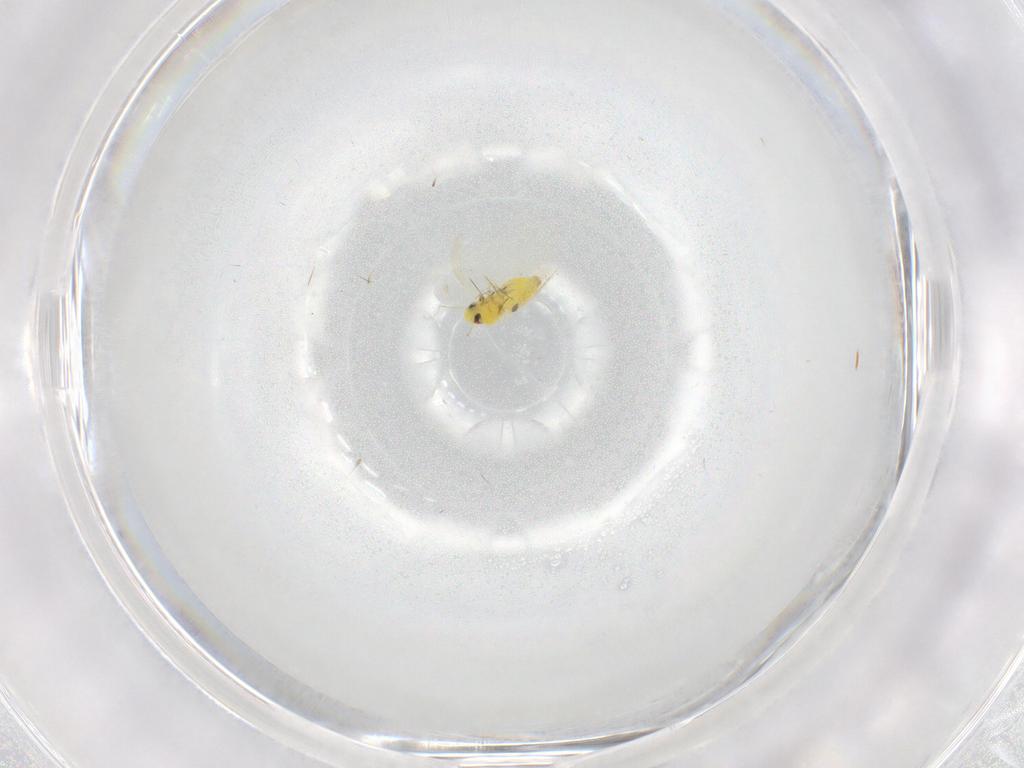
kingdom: Animalia
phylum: Arthropoda
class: Insecta
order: Hemiptera
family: Aleyrodidae
